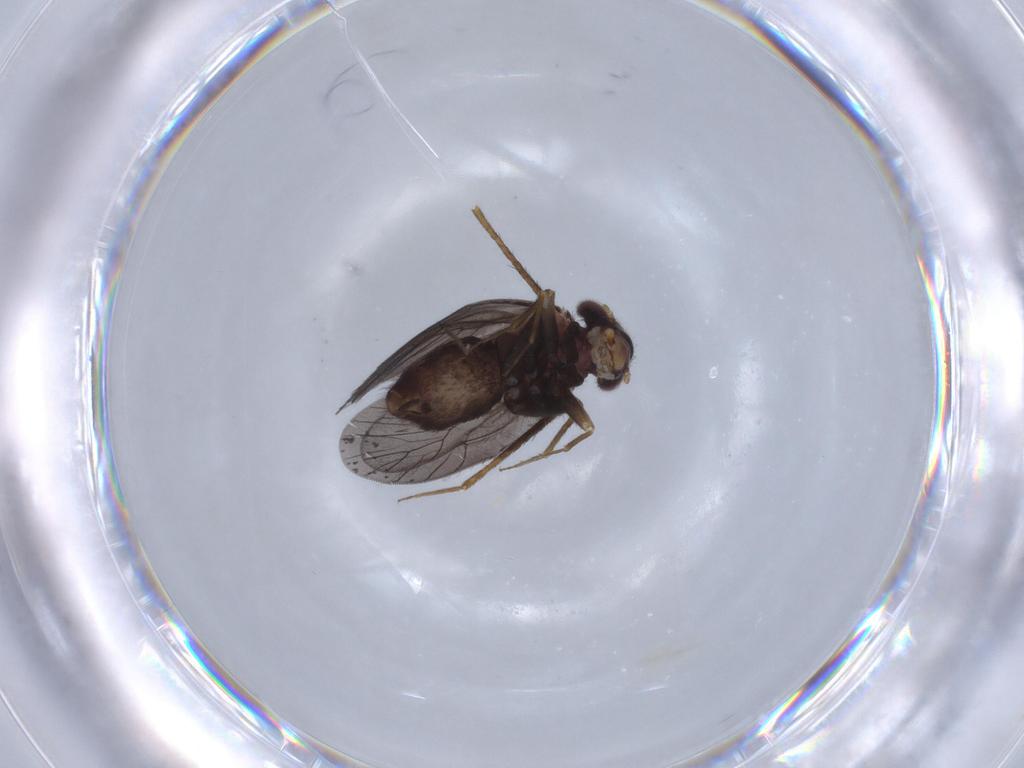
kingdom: Animalia
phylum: Arthropoda
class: Insecta
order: Psocodea
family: Lepidopsocidae
